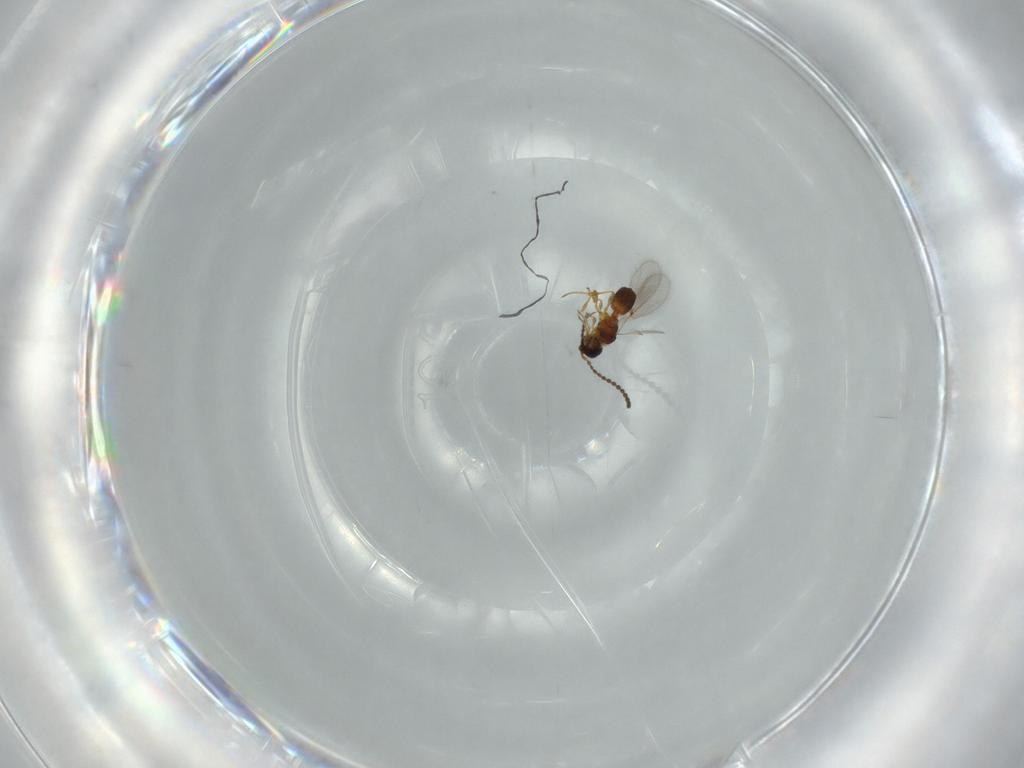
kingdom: Animalia
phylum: Arthropoda
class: Insecta
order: Hymenoptera
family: Diapriidae
